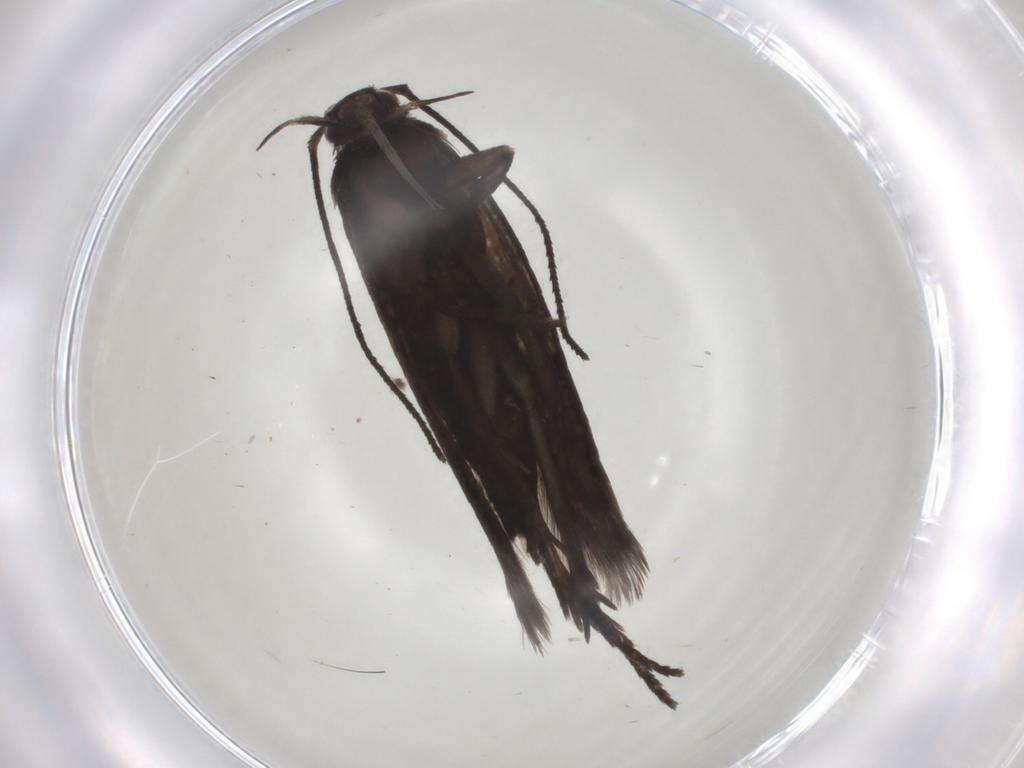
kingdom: Animalia
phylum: Arthropoda
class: Insecta
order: Lepidoptera
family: Gelechiidae
